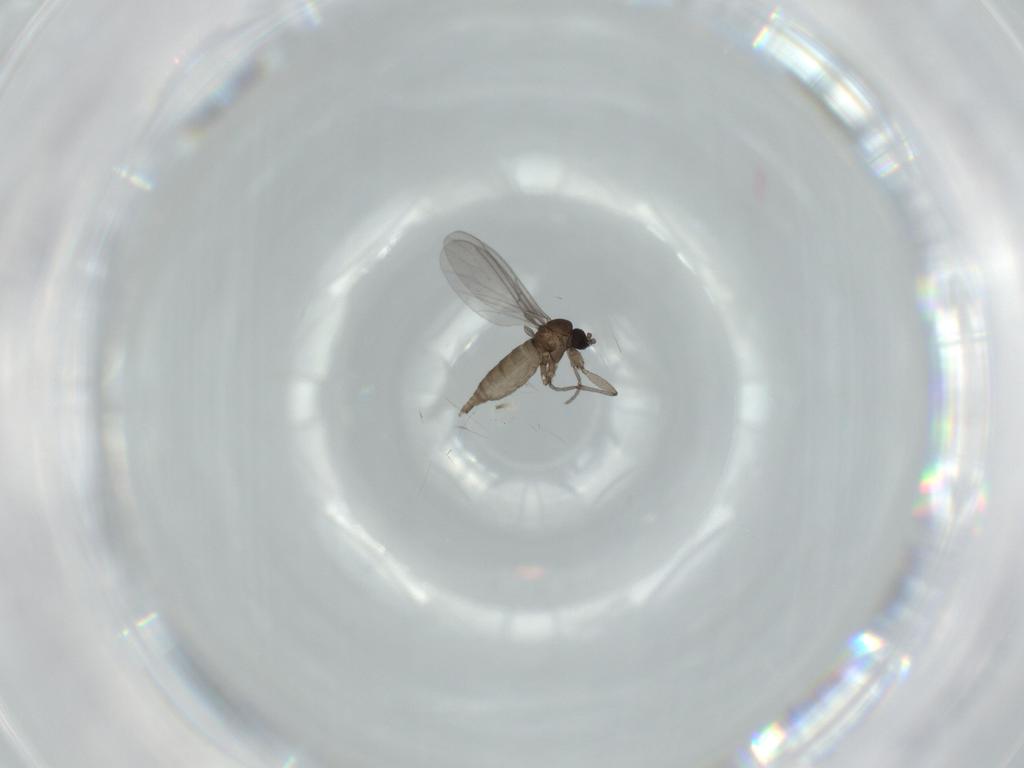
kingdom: Animalia
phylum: Arthropoda
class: Insecta
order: Diptera
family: Sciaridae
